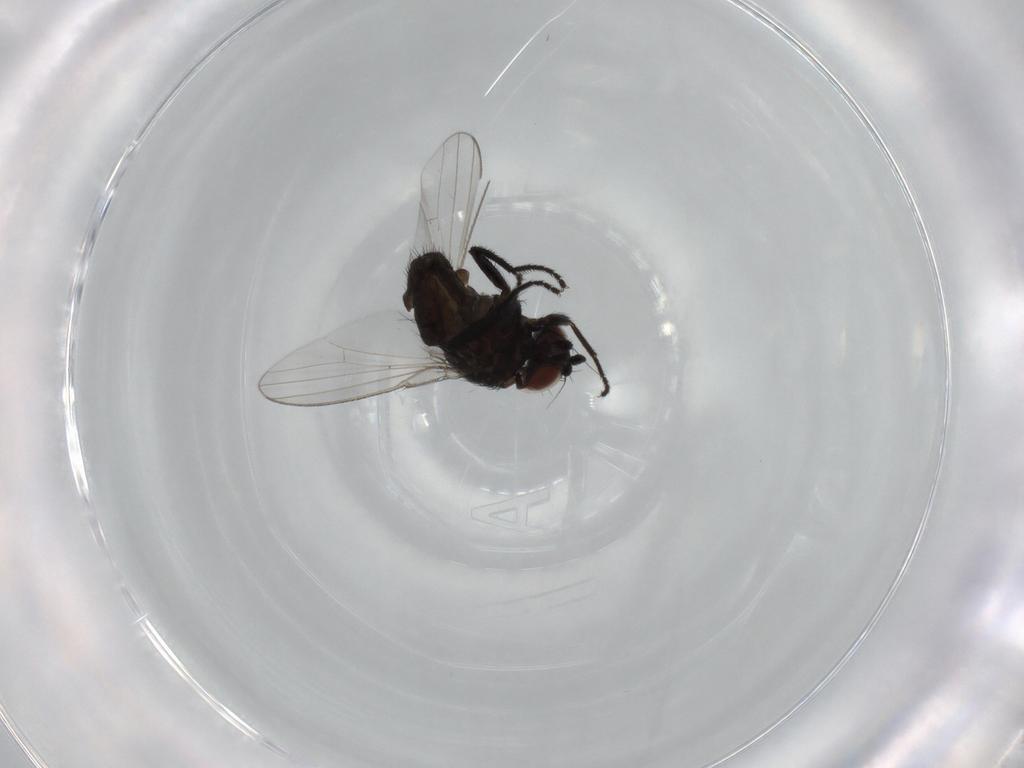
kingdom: Animalia
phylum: Arthropoda
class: Insecta
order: Diptera
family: Milichiidae
